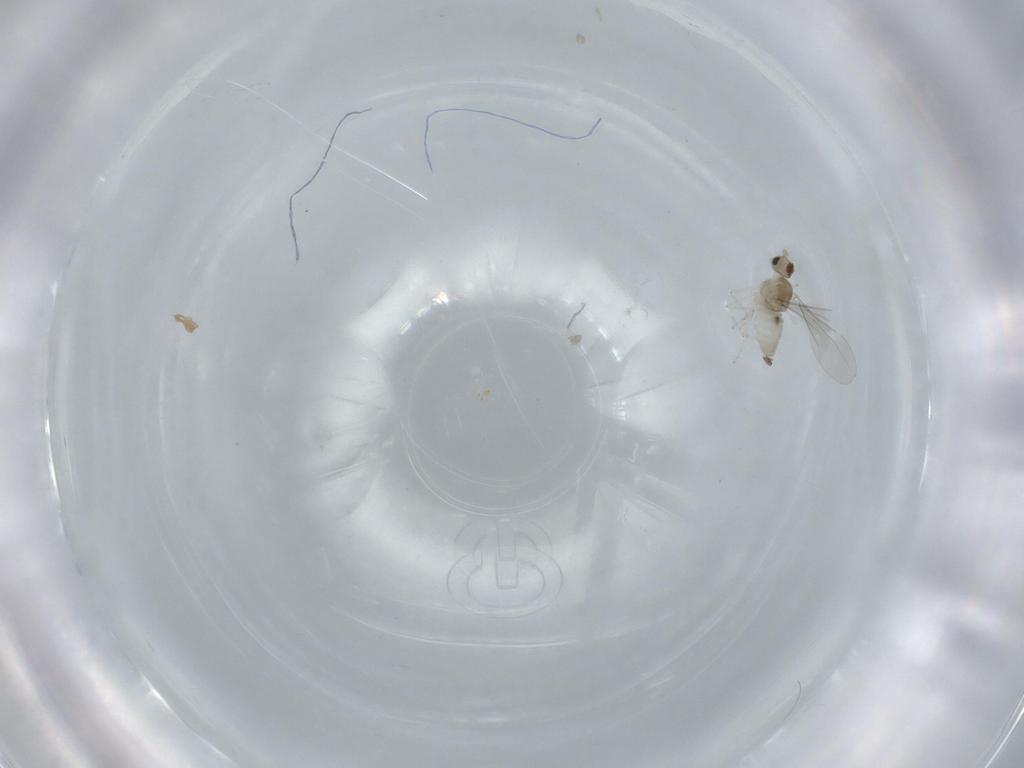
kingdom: Animalia
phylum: Arthropoda
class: Insecta
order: Diptera
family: Cecidomyiidae
